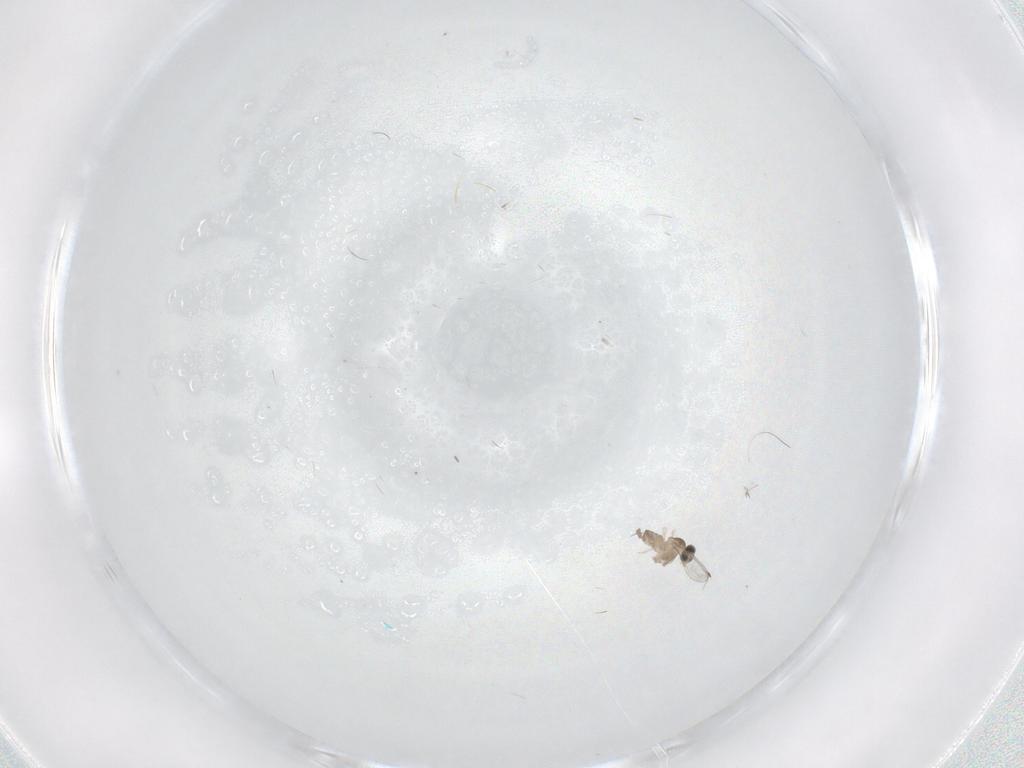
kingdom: Animalia
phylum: Arthropoda
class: Insecta
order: Diptera
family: Cecidomyiidae
